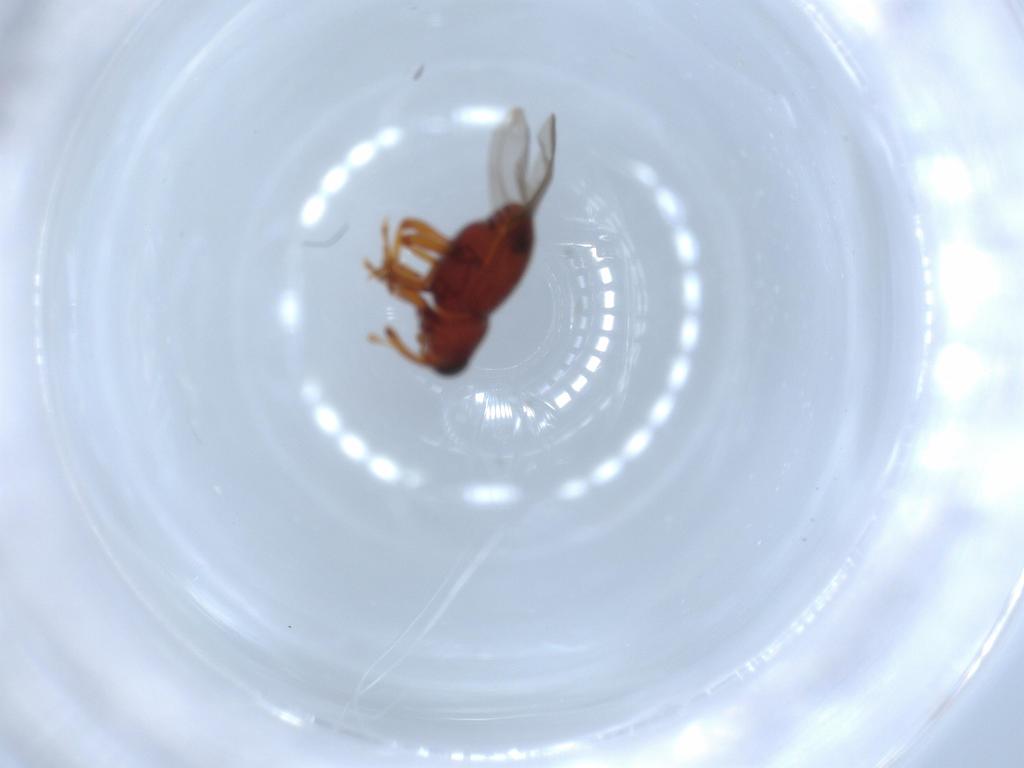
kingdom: Animalia
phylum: Arthropoda
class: Insecta
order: Coleoptera
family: Curculionidae
